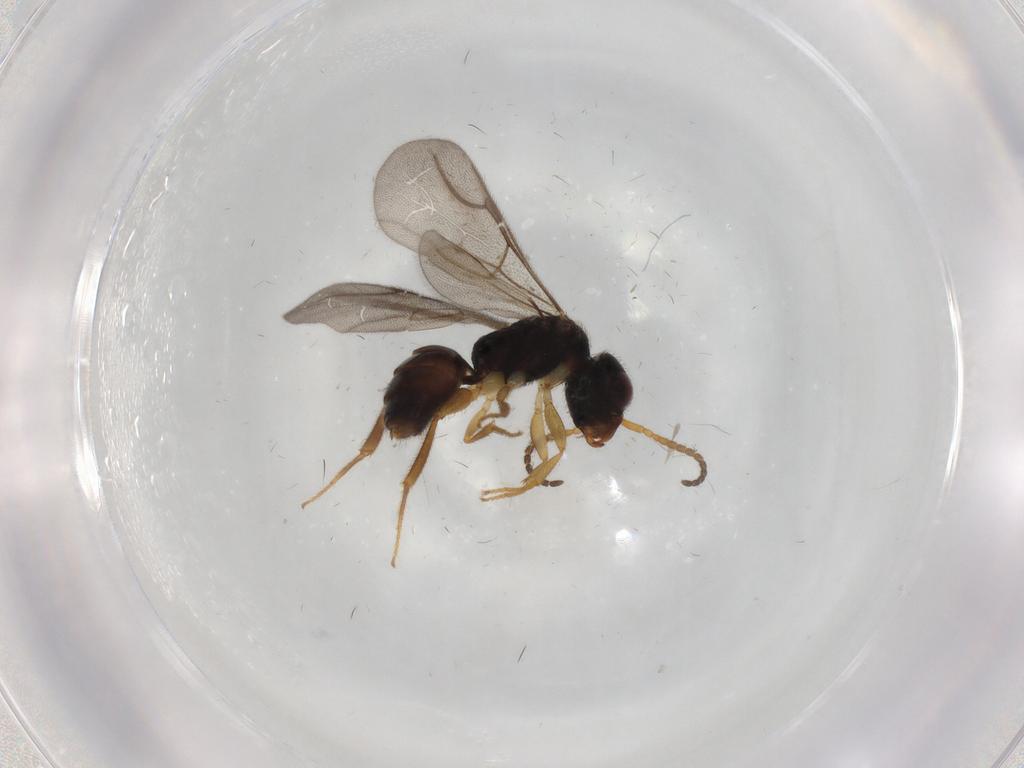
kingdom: Animalia
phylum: Arthropoda
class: Insecta
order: Hymenoptera
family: Bethylidae
